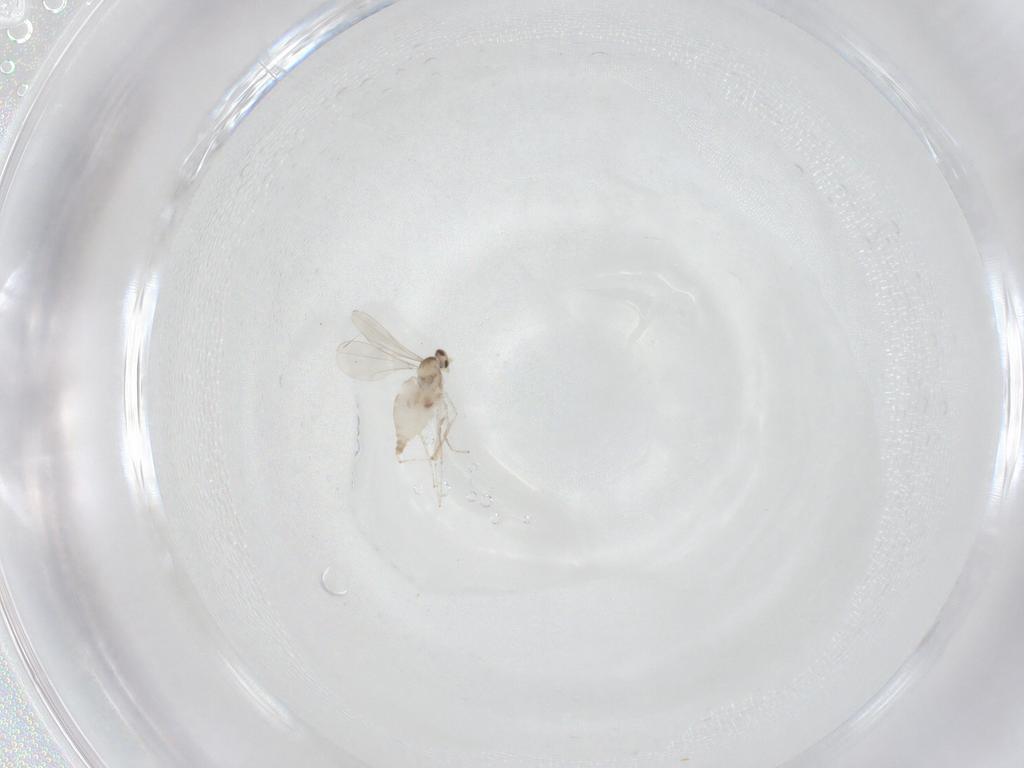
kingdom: Animalia
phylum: Arthropoda
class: Insecta
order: Diptera
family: Cecidomyiidae
